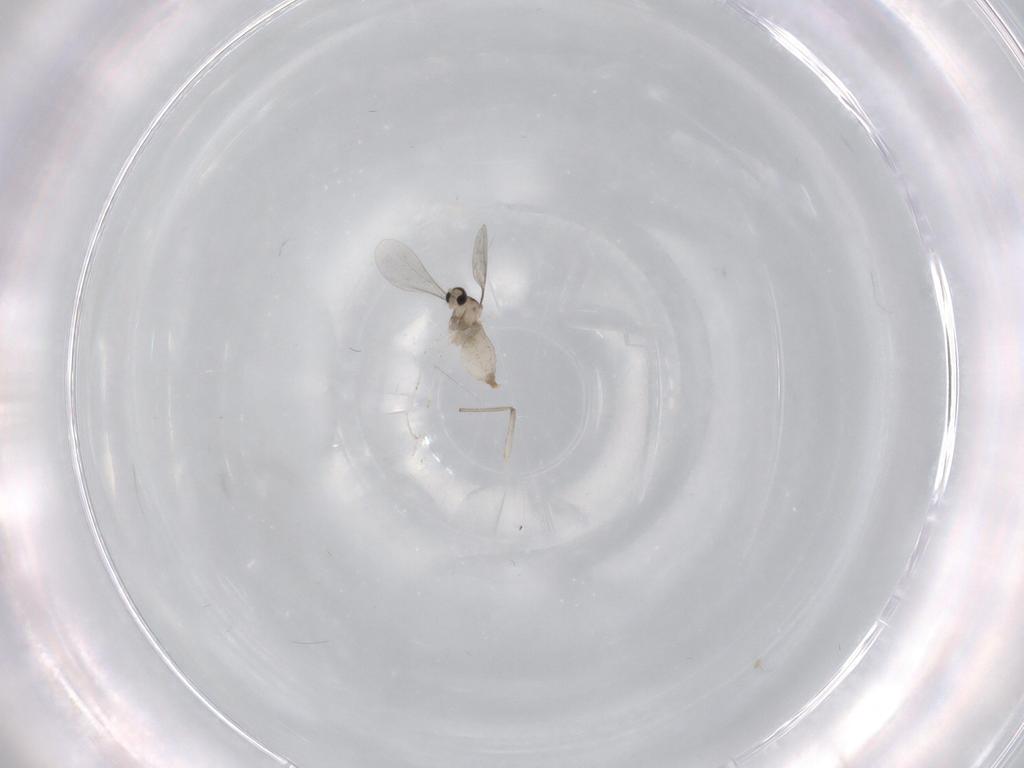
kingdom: Animalia
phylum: Arthropoda
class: Insecta
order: Diptera
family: Chironomidae
